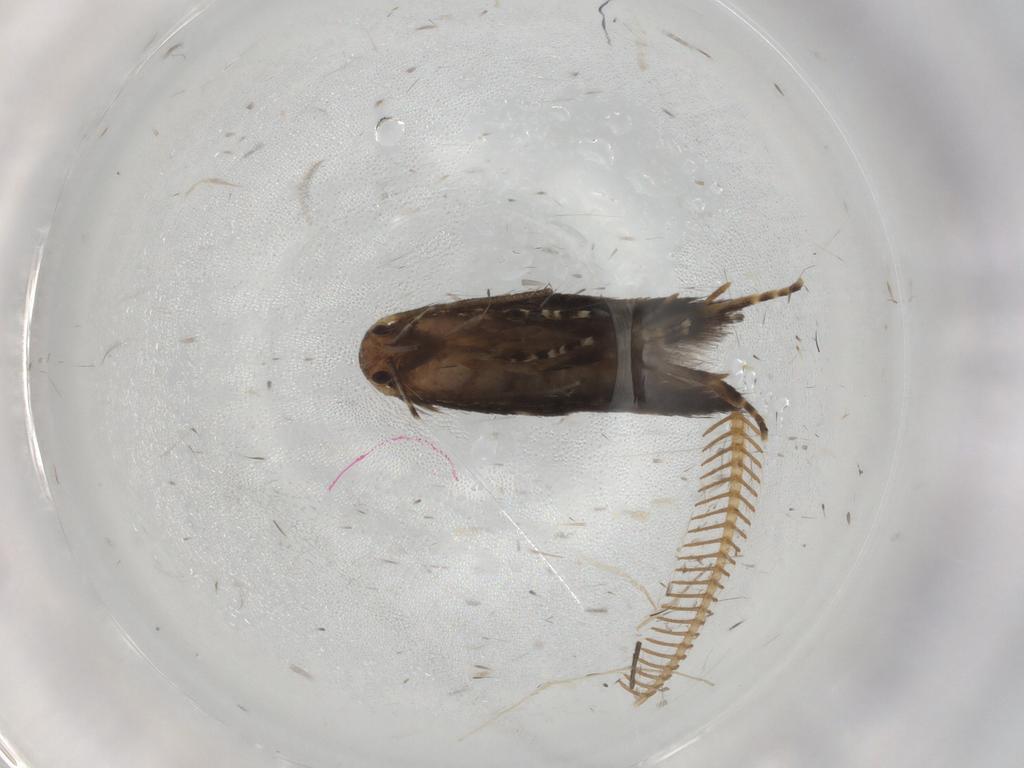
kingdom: Animalia
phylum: Arthropoda
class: Insecta
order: Lepidoptera
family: Noctuidae
